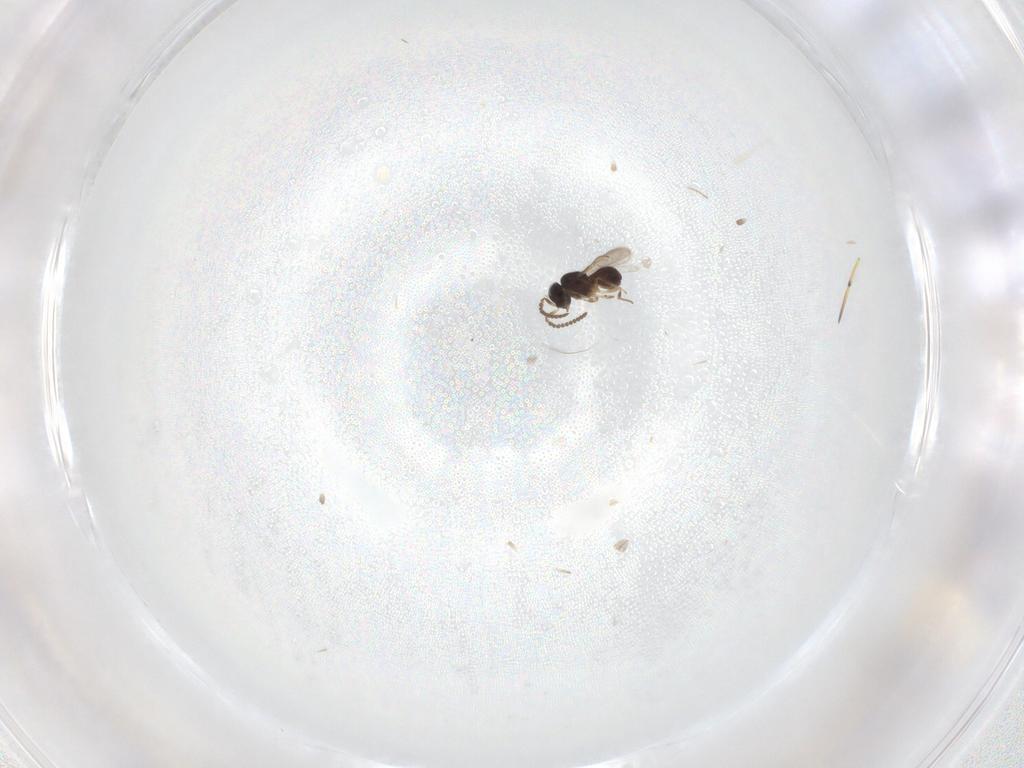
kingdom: Animalia
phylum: Arthropoda
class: Insecta
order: Hymenoptera
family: Scelionidae
